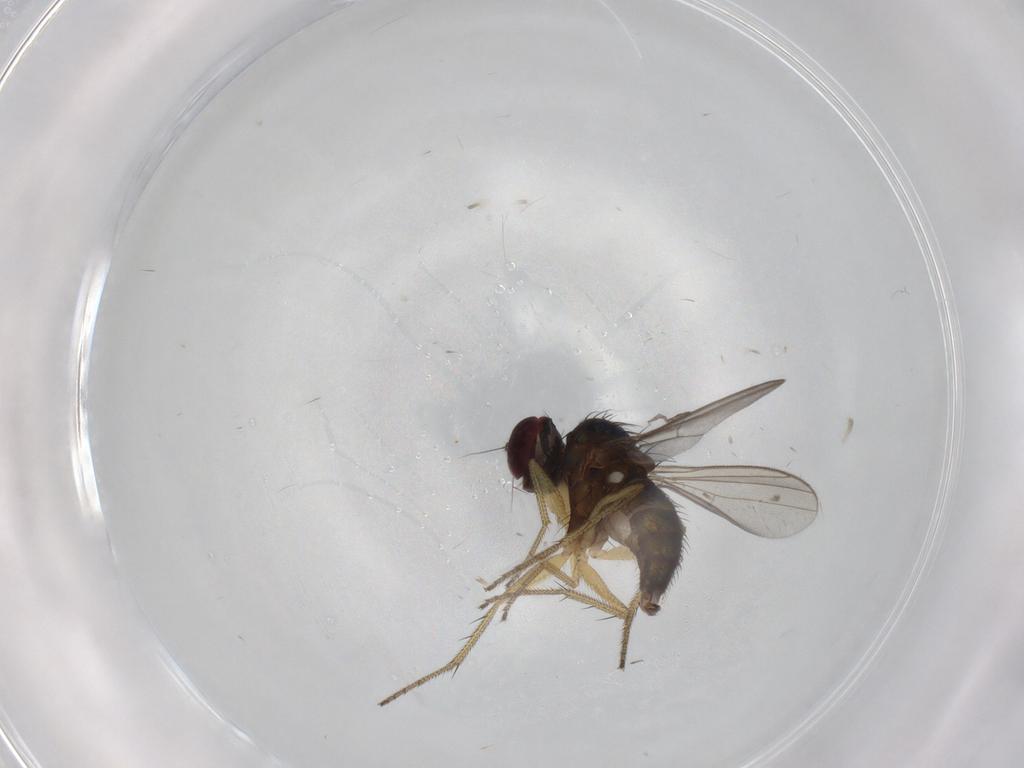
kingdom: Animalia
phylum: Arthropoda
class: Insecta
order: Diptera
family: Dolichopodidae
